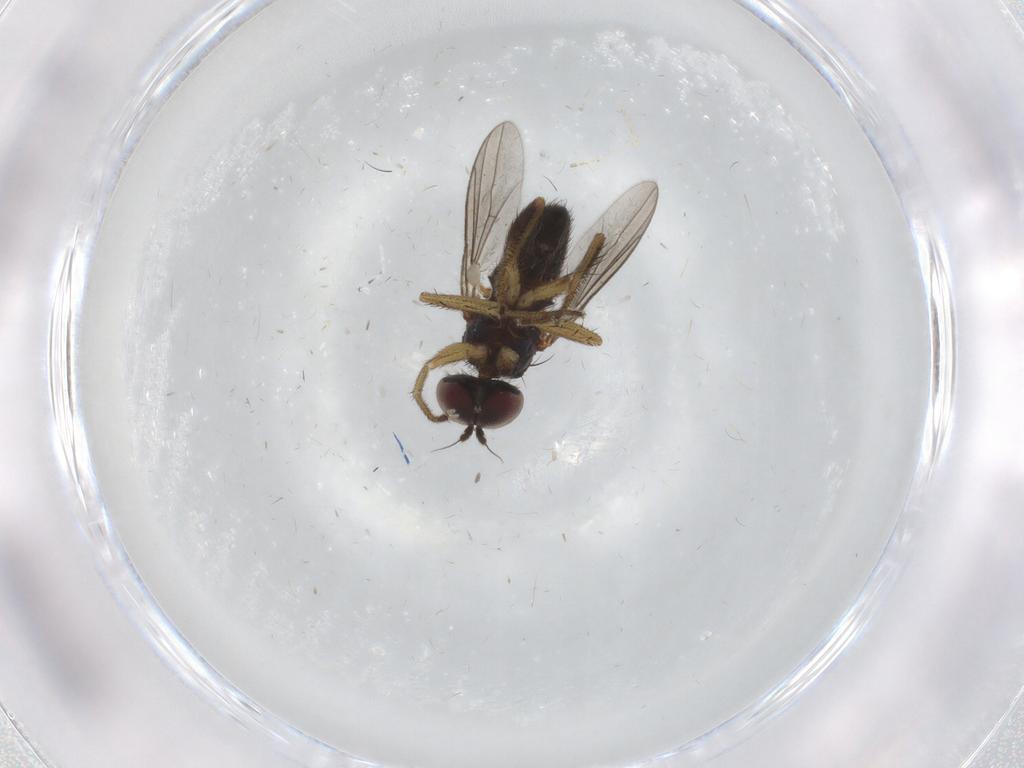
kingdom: Animalia
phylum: Arthropoda
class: Insecta
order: Diptera
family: Dolichopodidae
